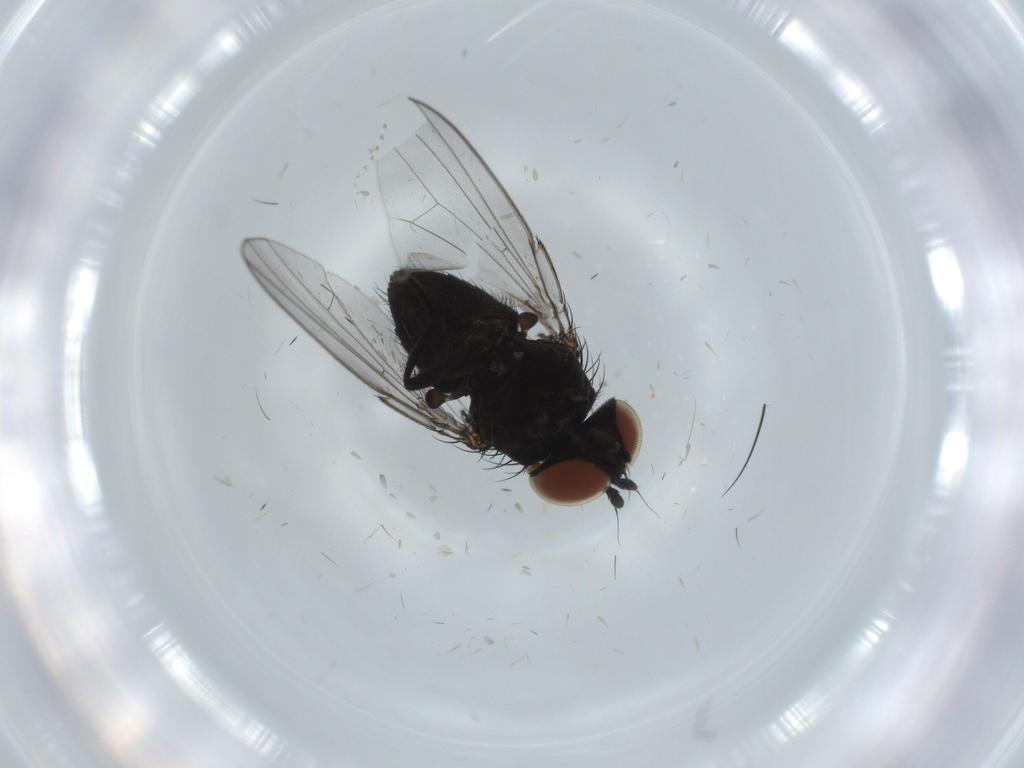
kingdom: Animalia
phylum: Arthropoda
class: Insecta
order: Diptera
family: Milichiidae
